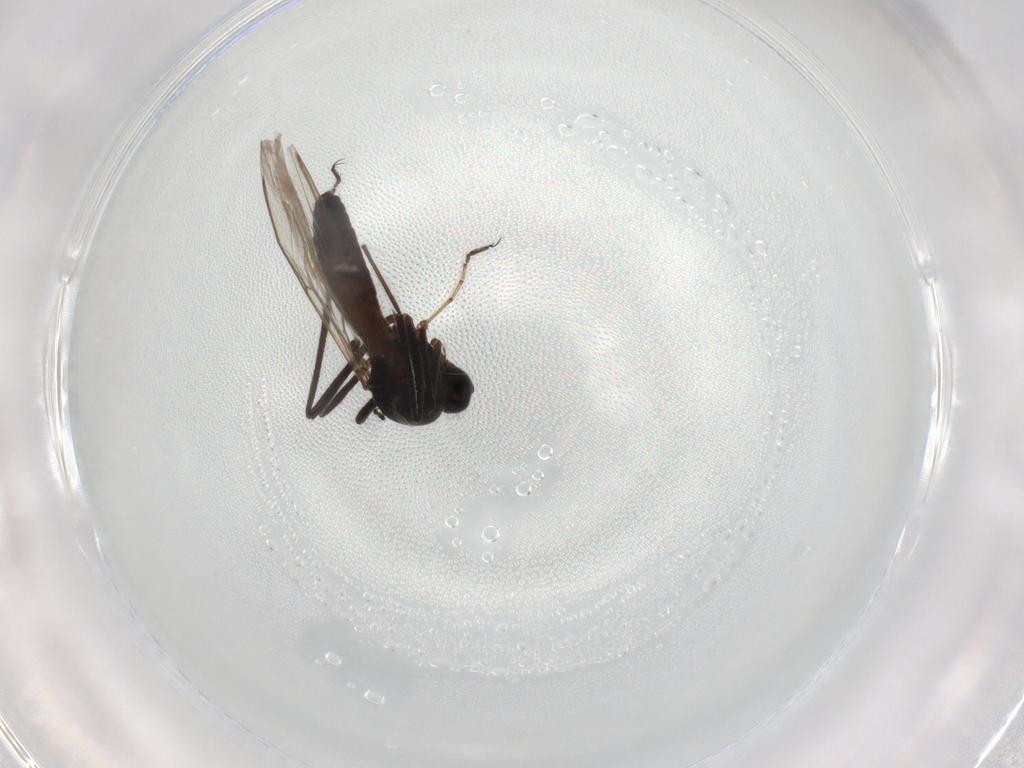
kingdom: Animalia
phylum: Arthropoda
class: Insecta
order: Diptera
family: Ceratopogonidae
